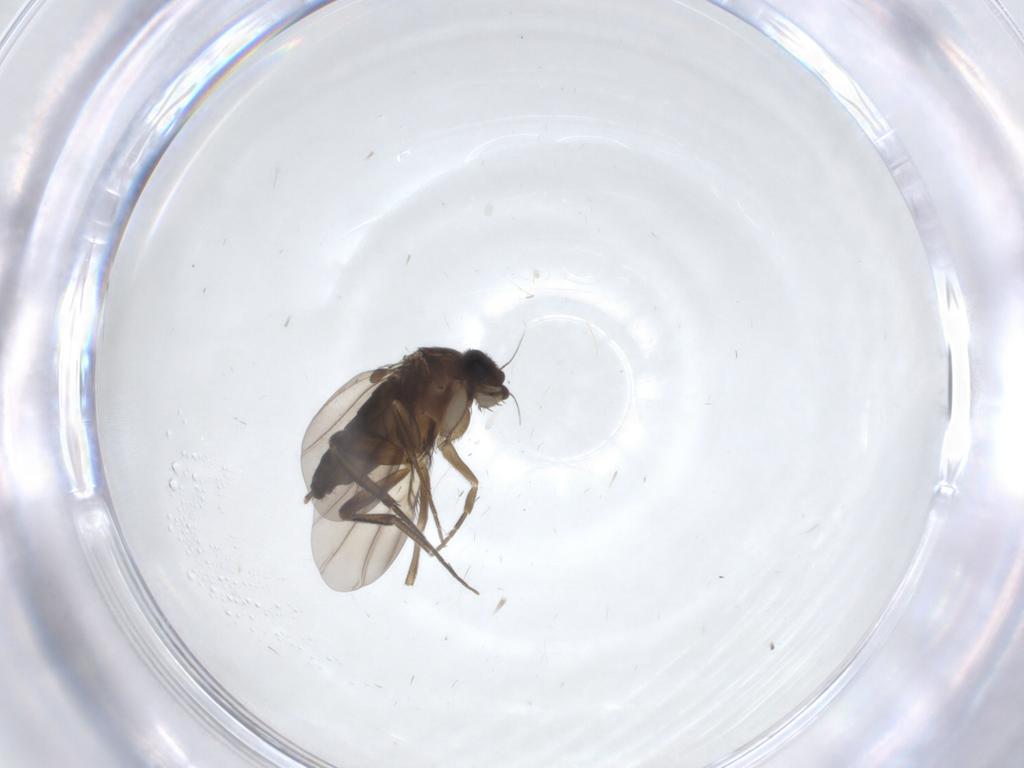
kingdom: Animalia
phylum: Arthropoda
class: Insecta
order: Diptera
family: Phoridae
